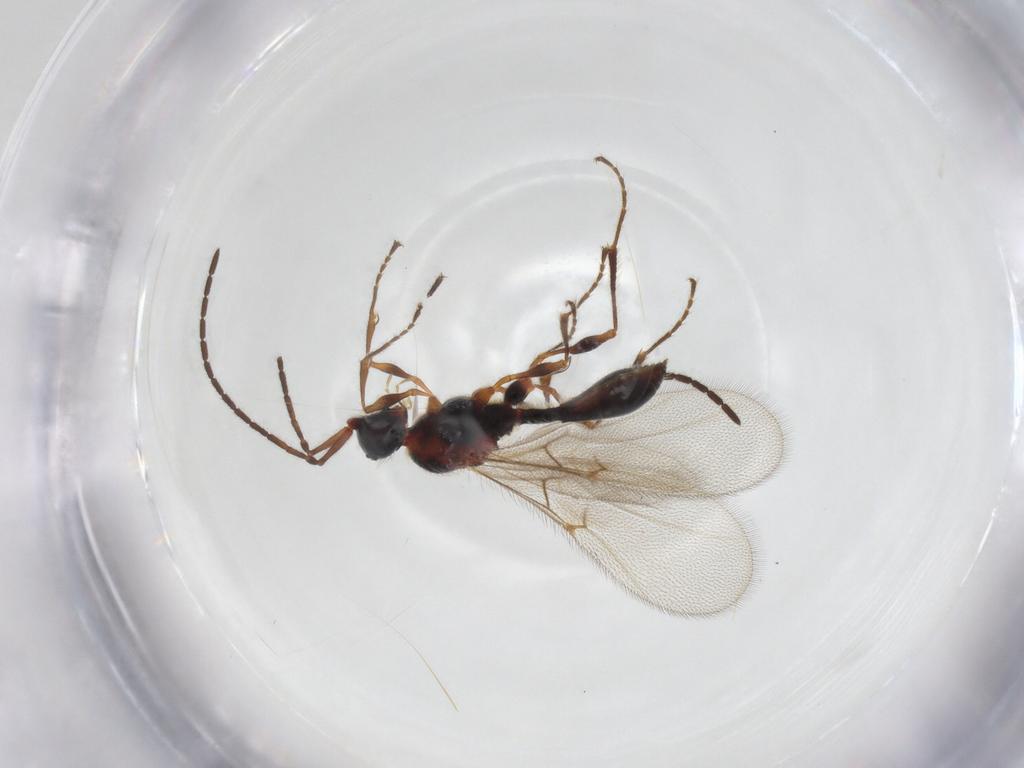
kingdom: Animalia
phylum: Arthropoda
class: Insecta
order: Hymenoptera
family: Diapriidae
